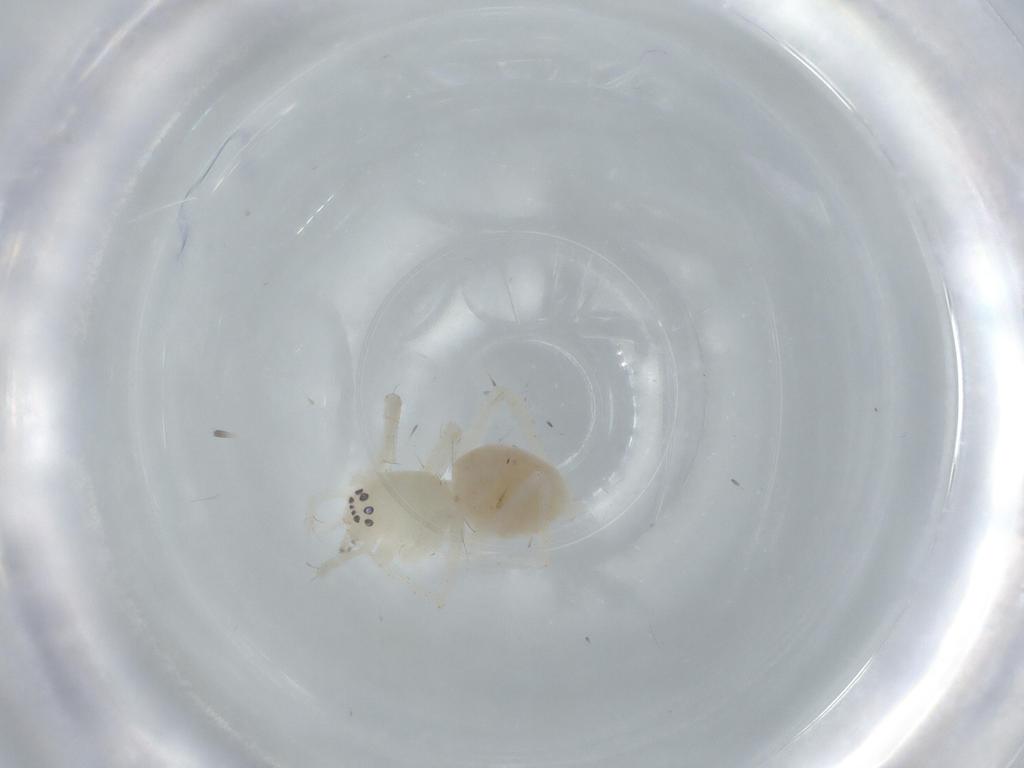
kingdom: Animalia
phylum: Arthropoda
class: Arachnida
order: Araneae
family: Anyphaenidae
